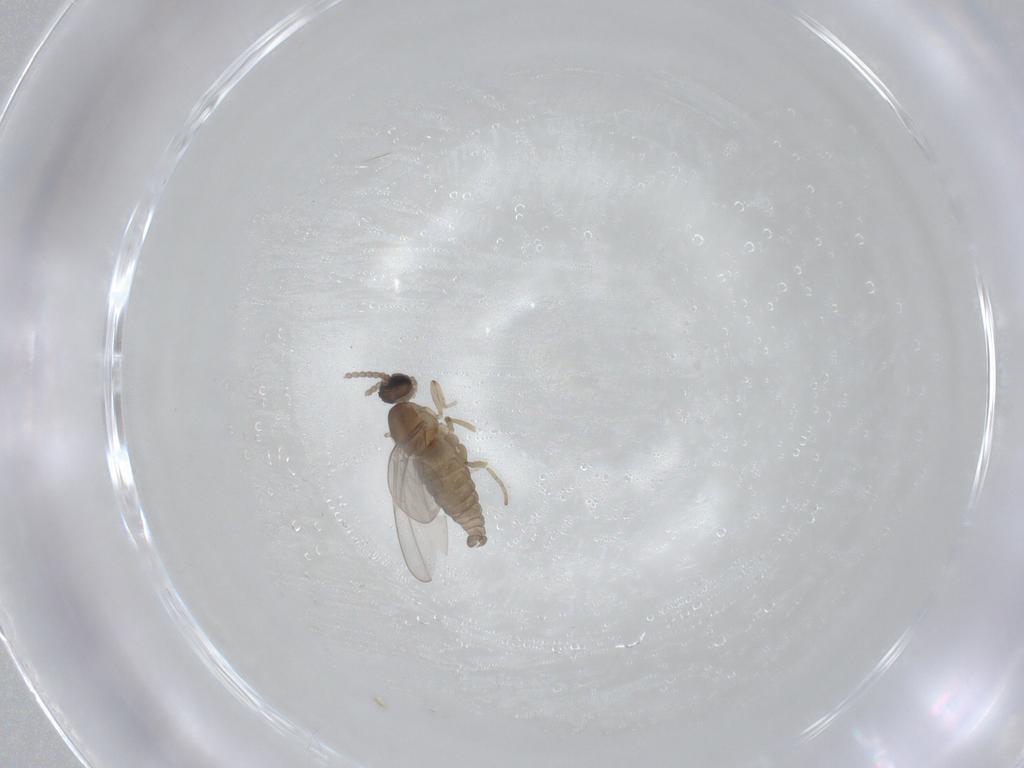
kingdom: Animalia
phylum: Arthropoda
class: Insecta
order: Diptera
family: Cecidomyiidae
